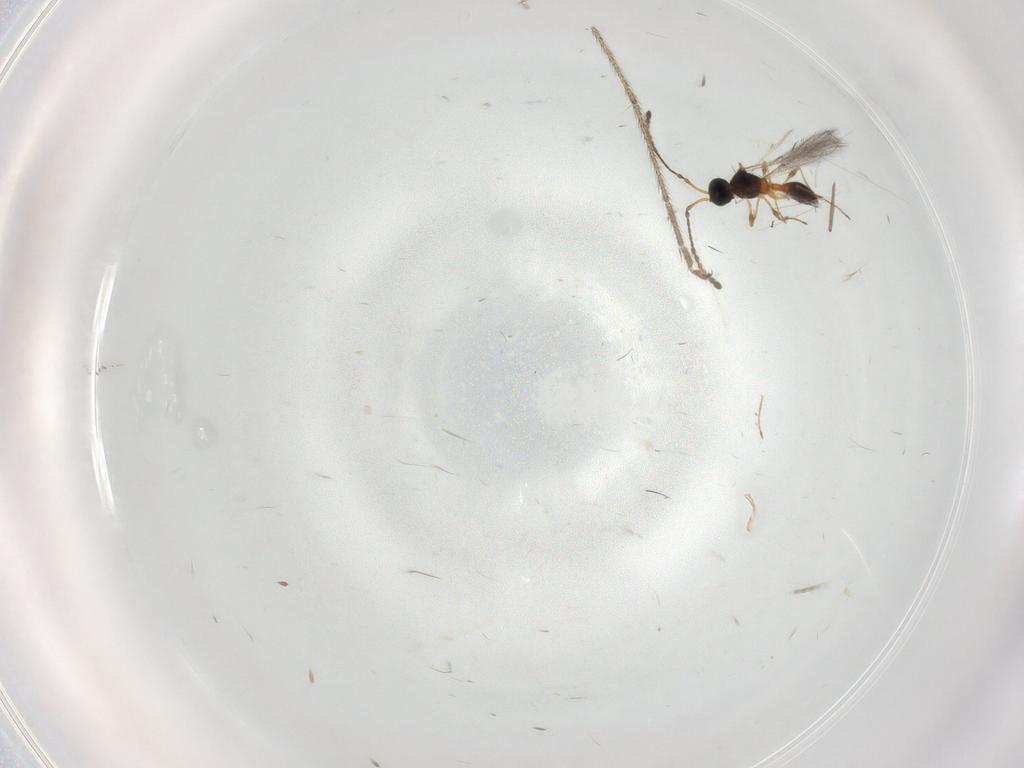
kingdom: Animalia
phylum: Arthropoda
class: Insecta
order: Hymenoptera
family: Diapriidae
